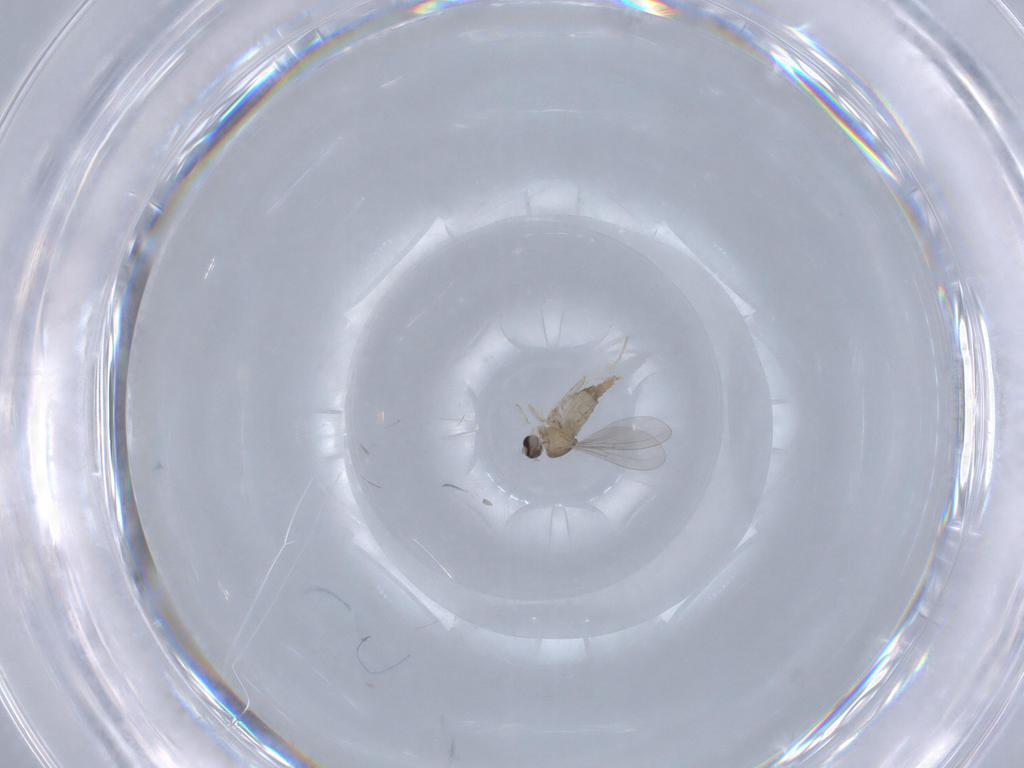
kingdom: Animalia
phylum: Arthropoda
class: Insecta
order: Diptera
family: Cecidomyiidae
